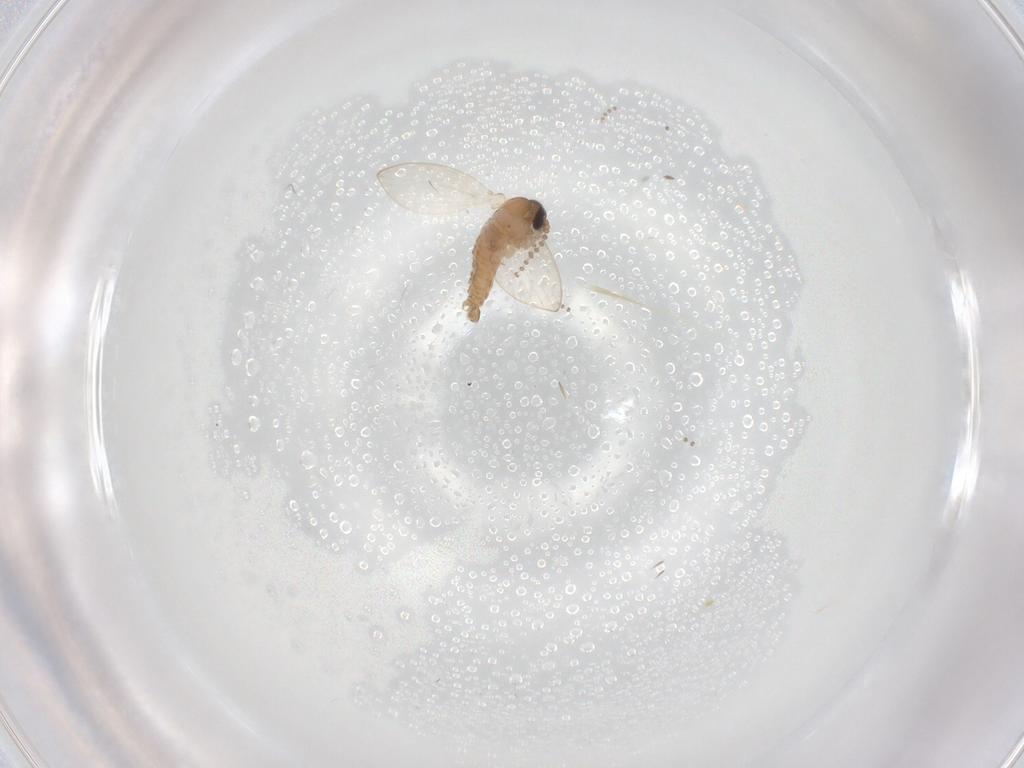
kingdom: Animalia
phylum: Arthropoda
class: Insecta
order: Diptera
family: Psychodidae
